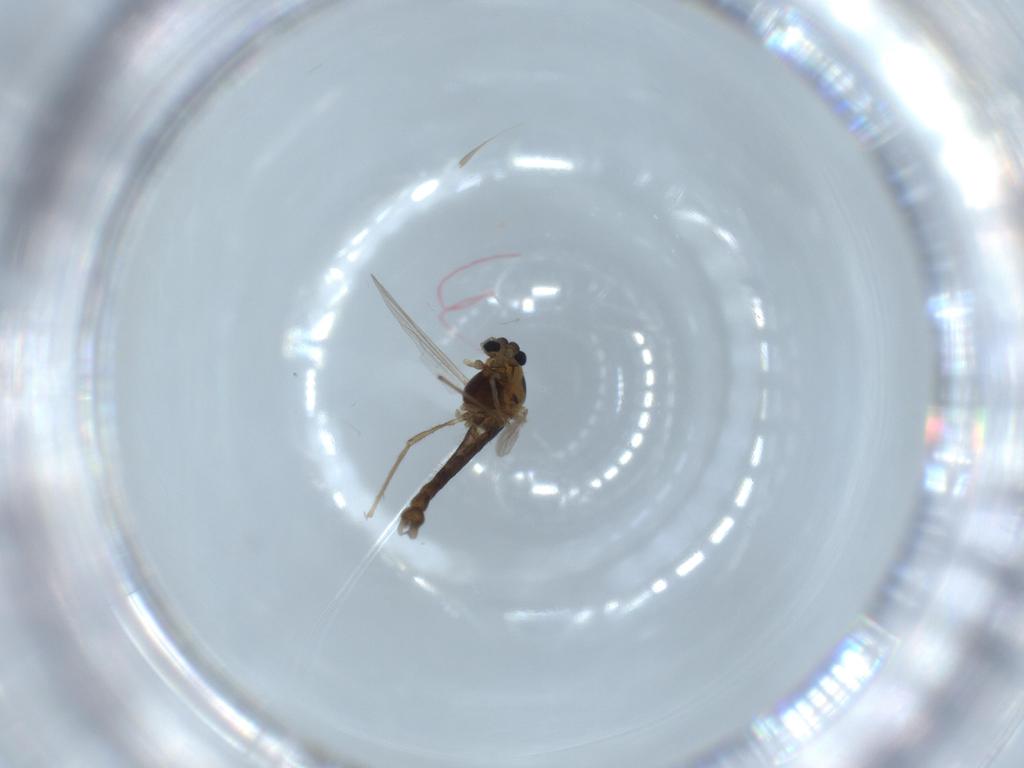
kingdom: Animalia
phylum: Arthropoda
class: Insecta
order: Diptera
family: Chironomidae
